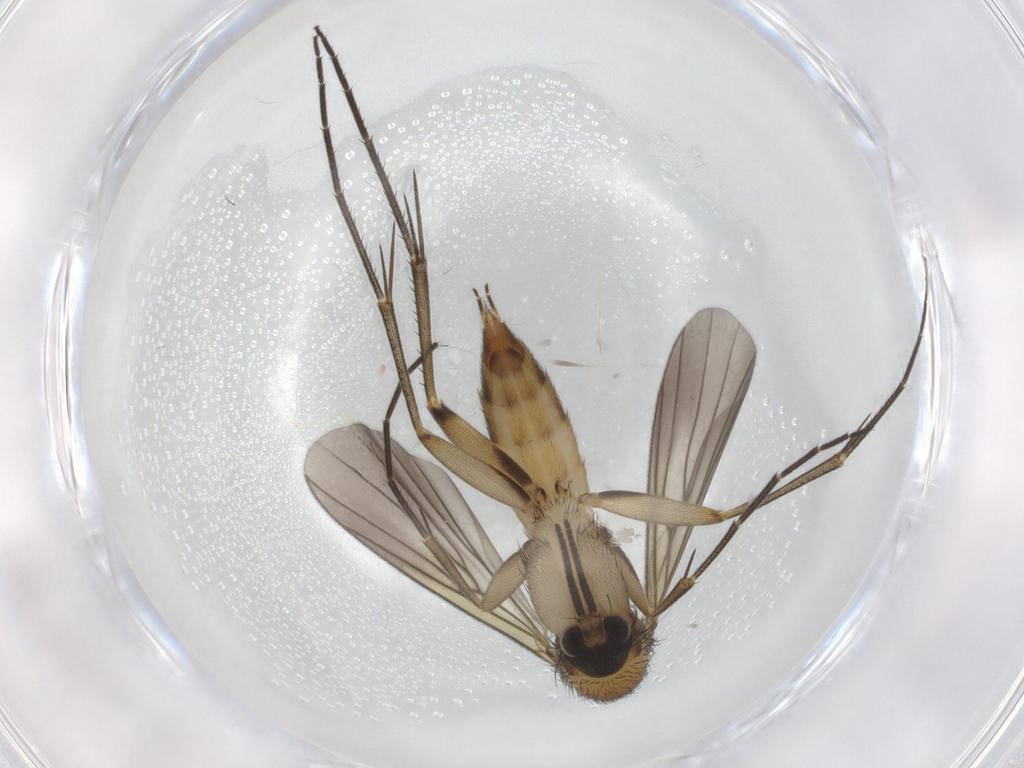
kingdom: Animalia
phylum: Arthropoda
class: Insecta
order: Diptera
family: Mycetophilidae
